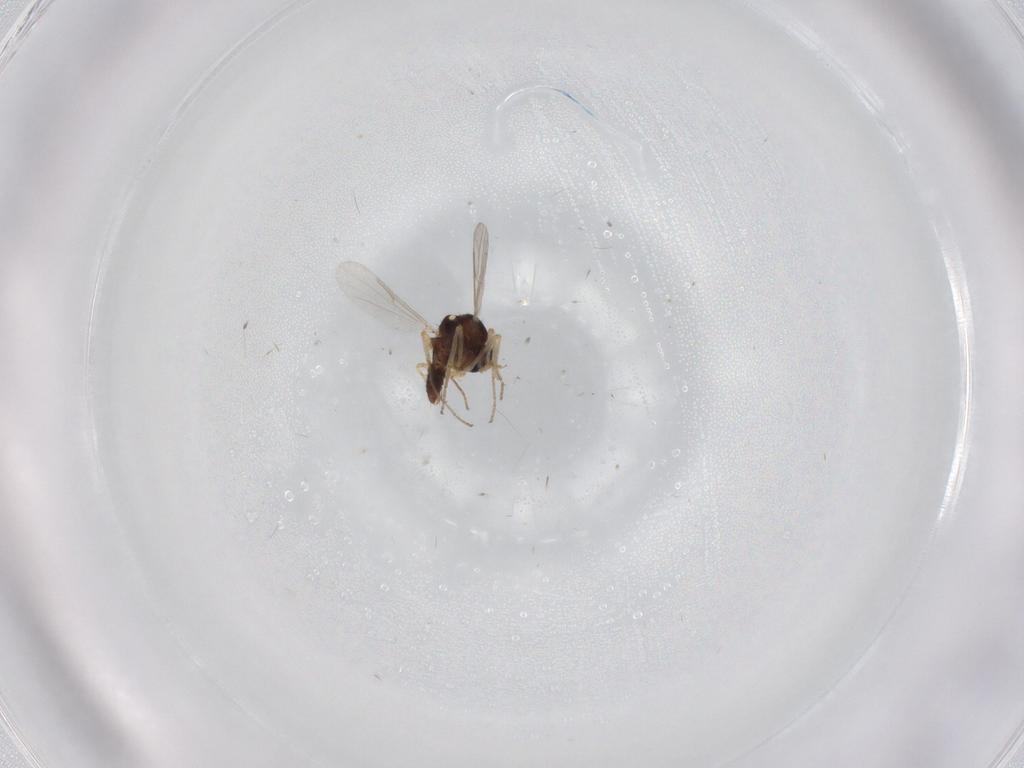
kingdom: Animalia
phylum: Arthropoda
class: Insecta
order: Diptera
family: Ceratopogonidae
